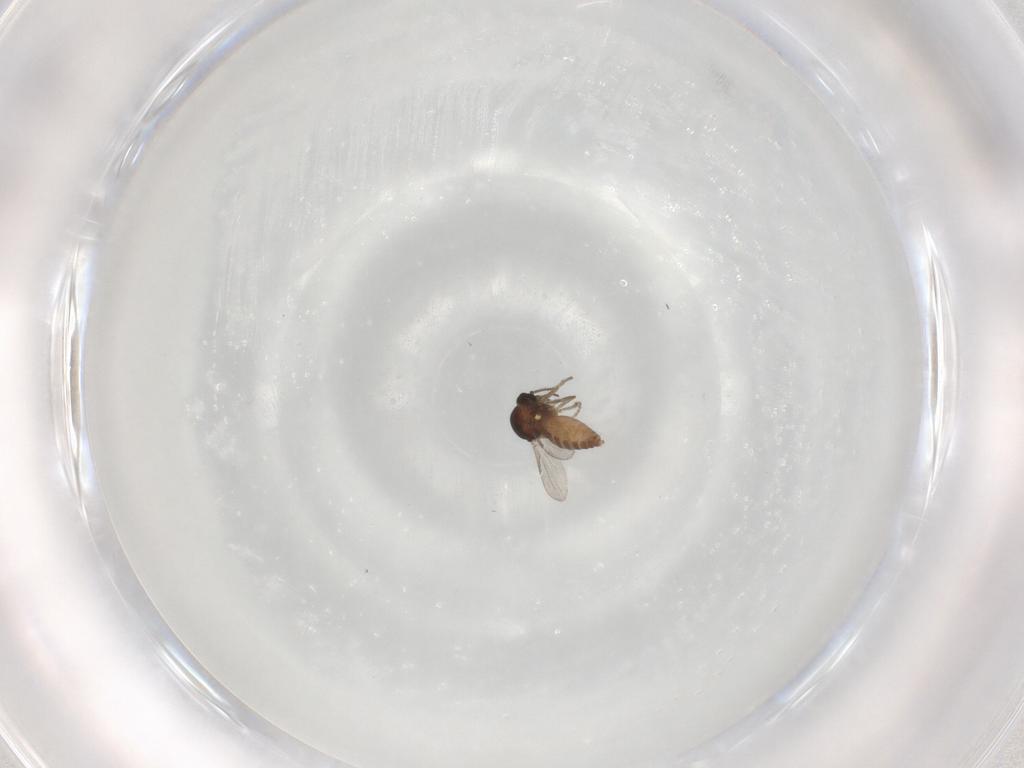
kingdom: Animalia
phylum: Arthropoda
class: Insecta
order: Diptera
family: Ceratopogonidae
